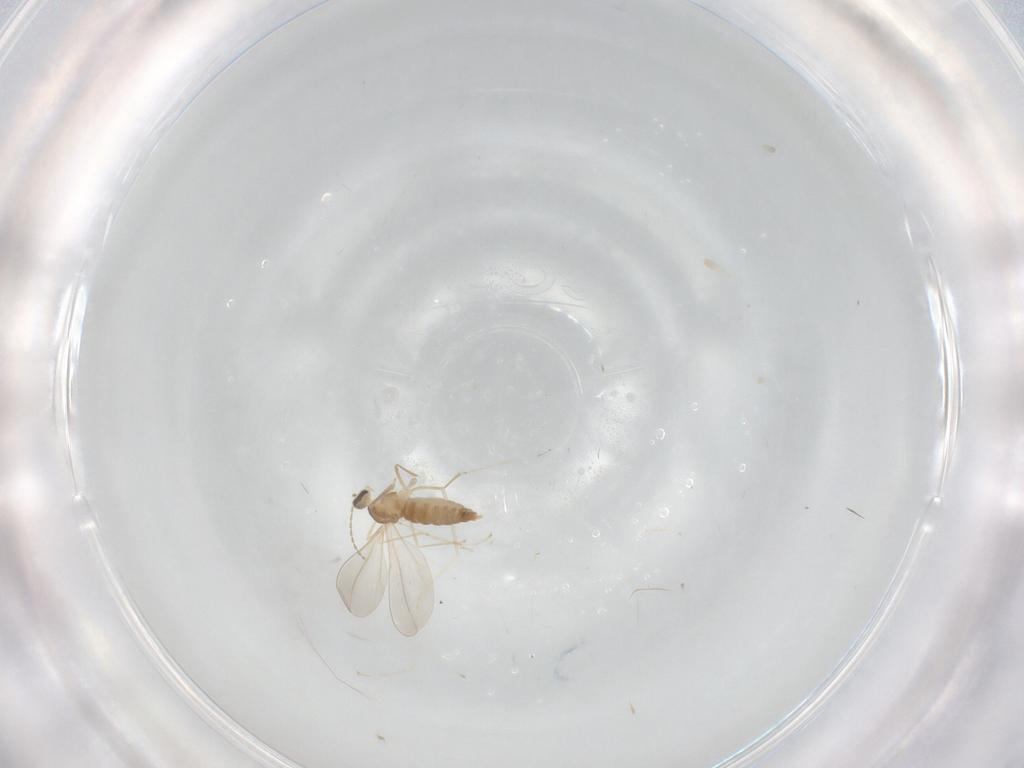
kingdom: Animalia
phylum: Arthropoda
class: Insecta
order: Diptera
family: Cecidomyiidae
